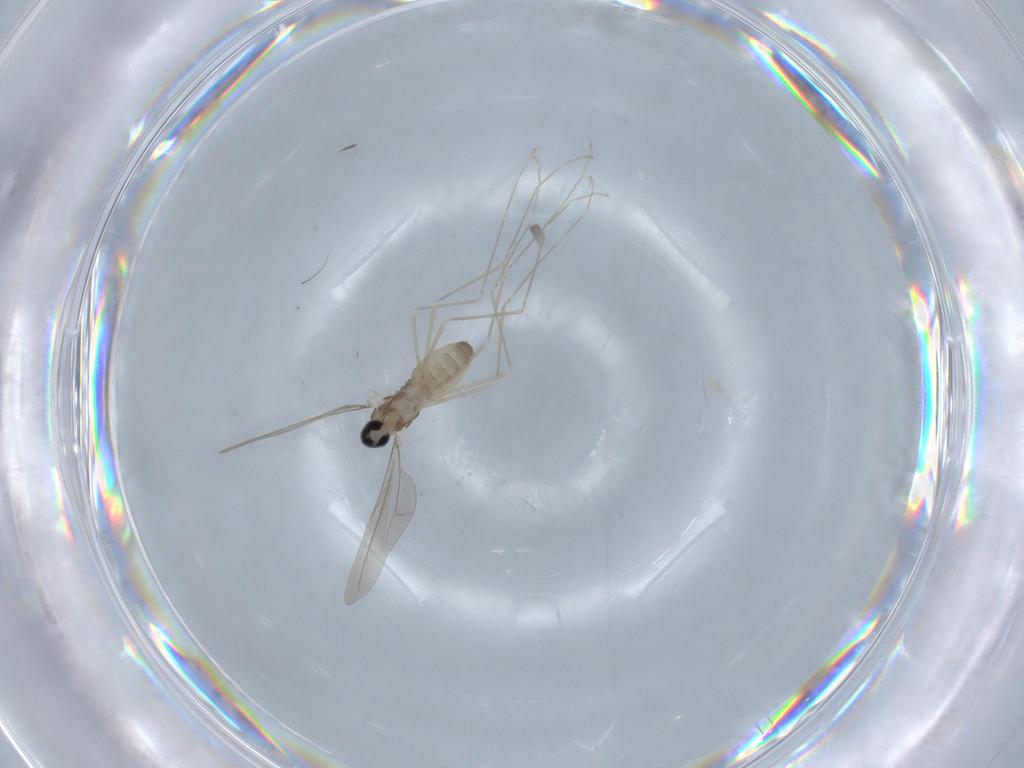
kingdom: Animalia
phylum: Arthropoda
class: Insecta
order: Diptera
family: Cecidomyiidae
